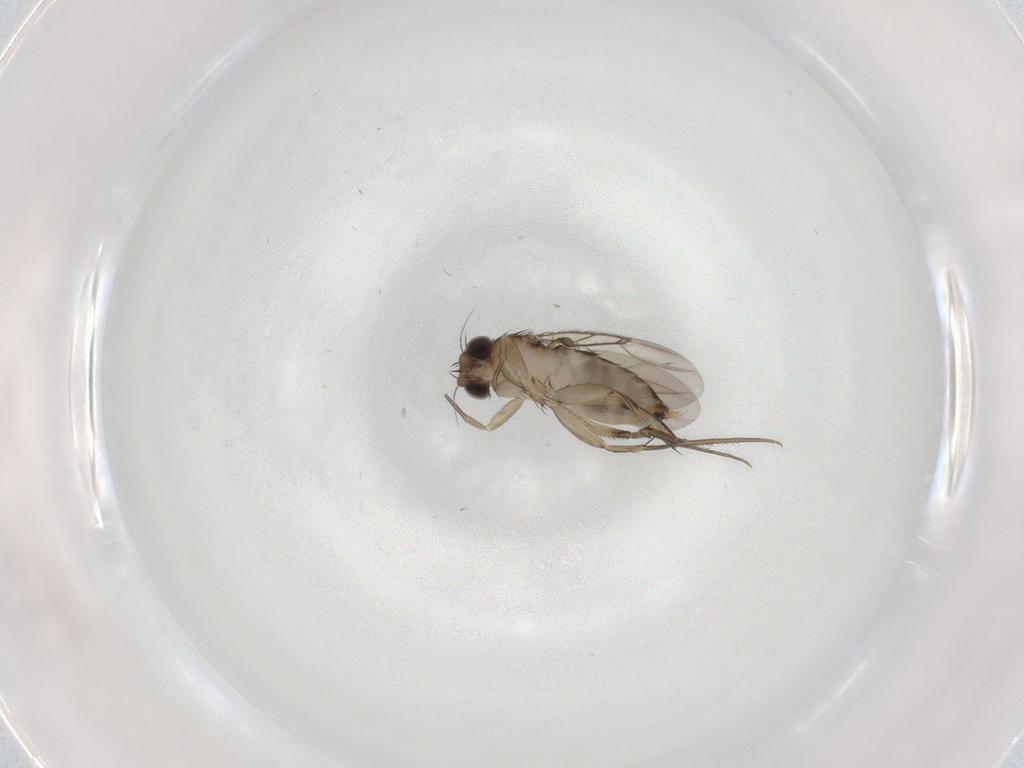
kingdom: Animalia
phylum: Arthropoda
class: Insecta
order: Diptera
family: Phoridae
